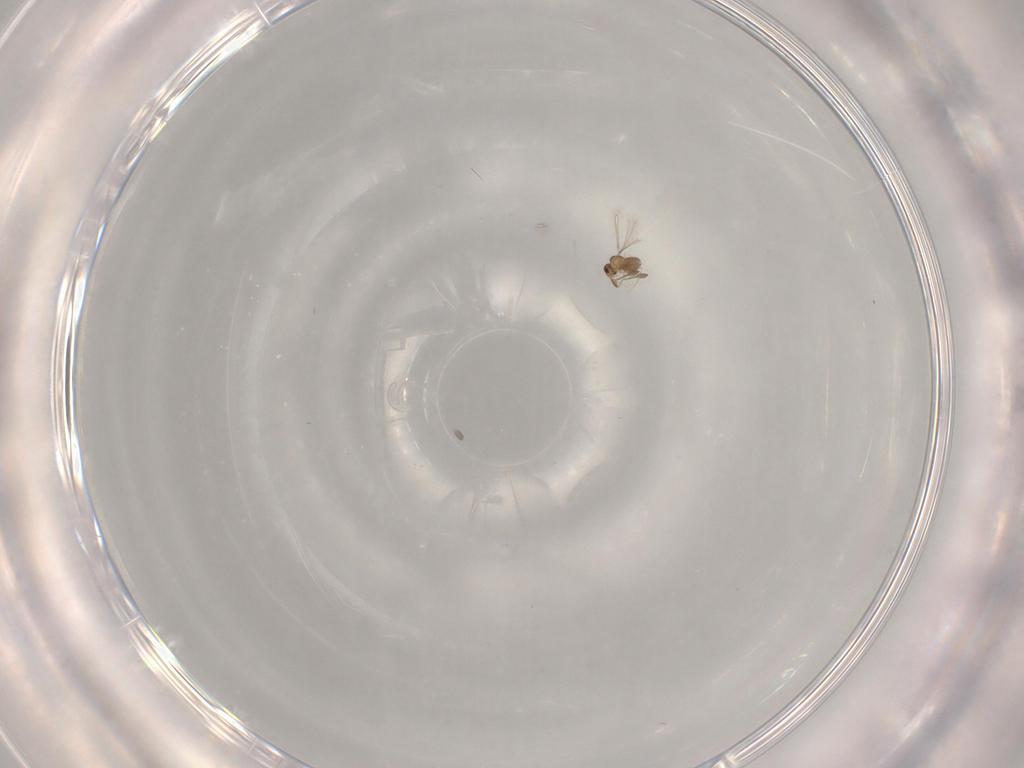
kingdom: Animalia
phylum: Arthropoda
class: Insecta
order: Hymenoptera
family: Mymaridae
